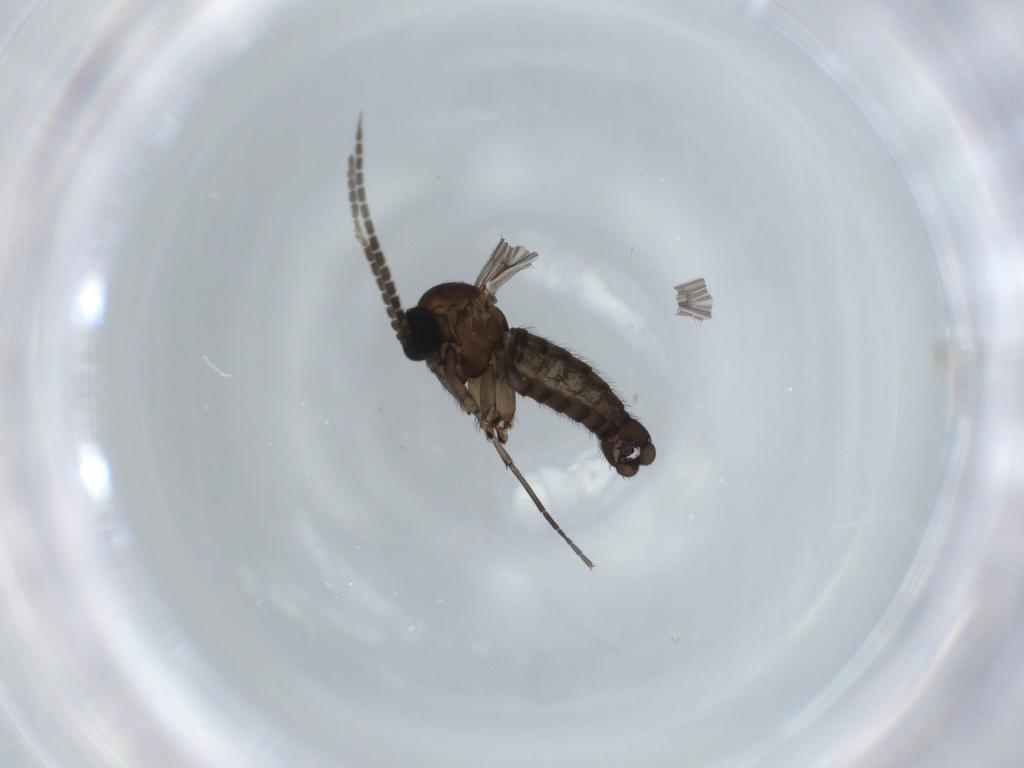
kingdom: Animalia
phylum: Arthropoda
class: Insecta
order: Diptera
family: Sciaridae
